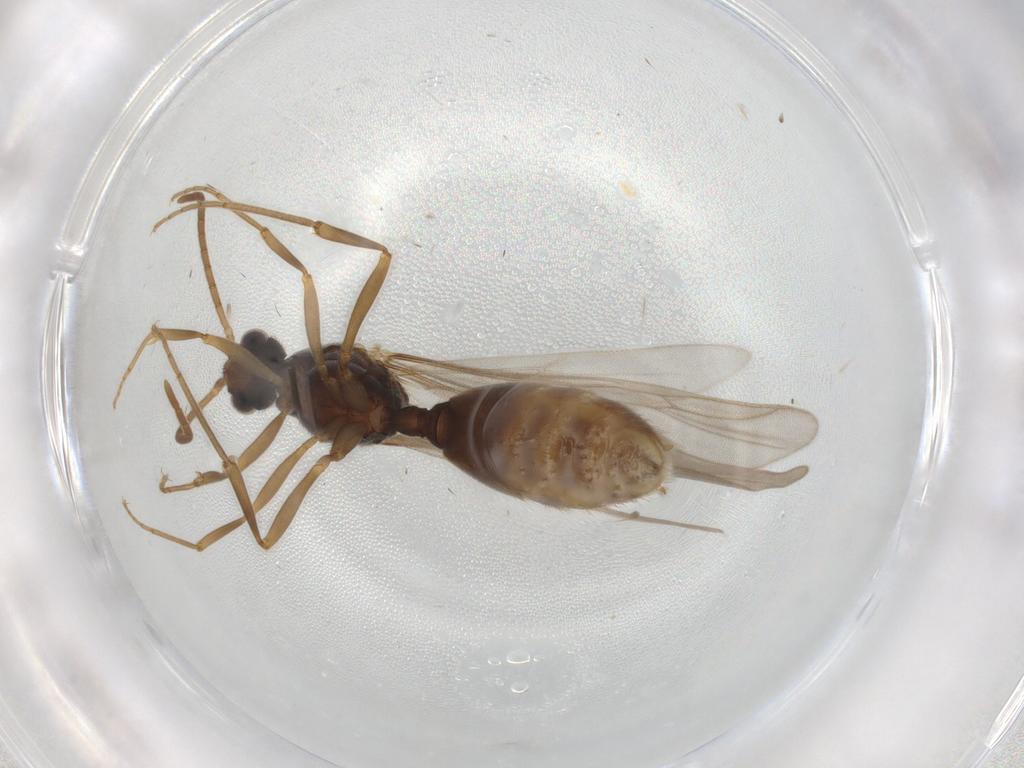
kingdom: Animalia
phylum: Arthropoda
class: Insecta
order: Hymenoptera
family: Formicidae
